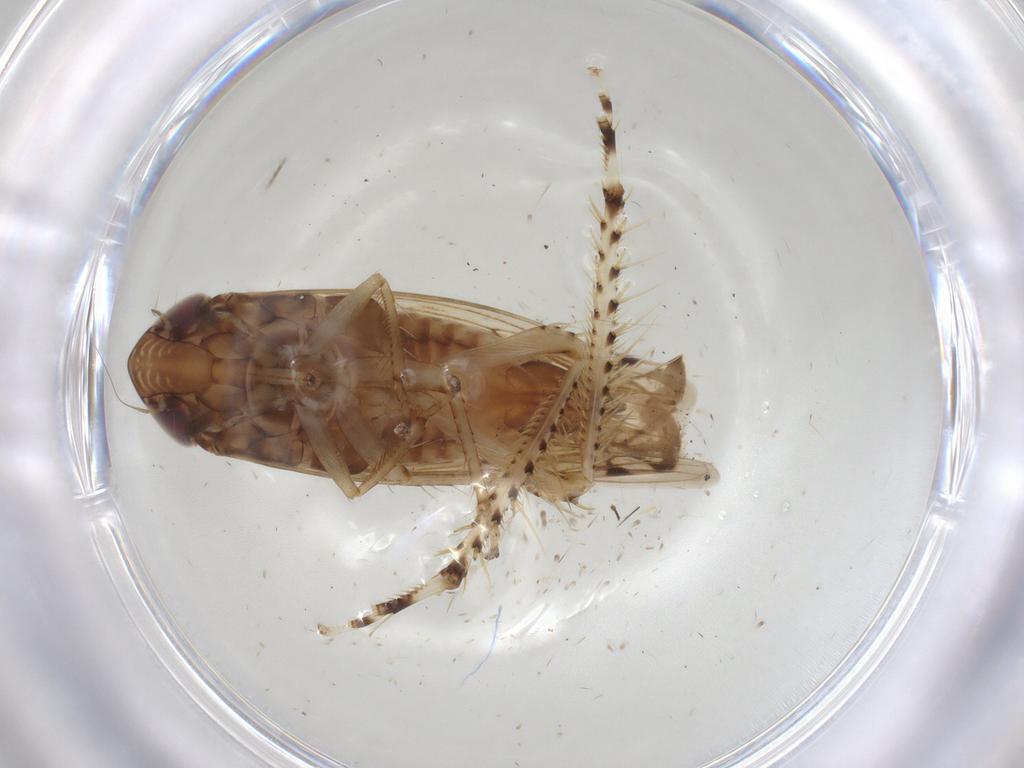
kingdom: Animalia
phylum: Arthropoda
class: Insecta
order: Hemiptera
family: Cicadellidae
